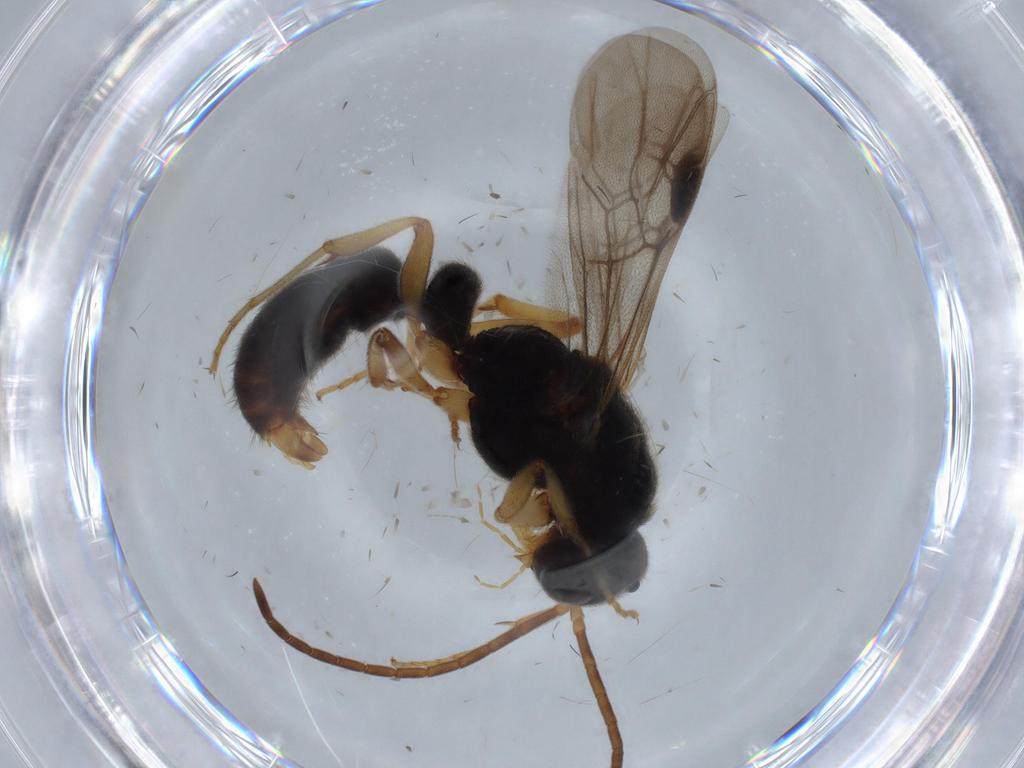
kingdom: Animalia
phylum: Arthropoda
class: Insecta
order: Hymenoptera
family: Formicidae
